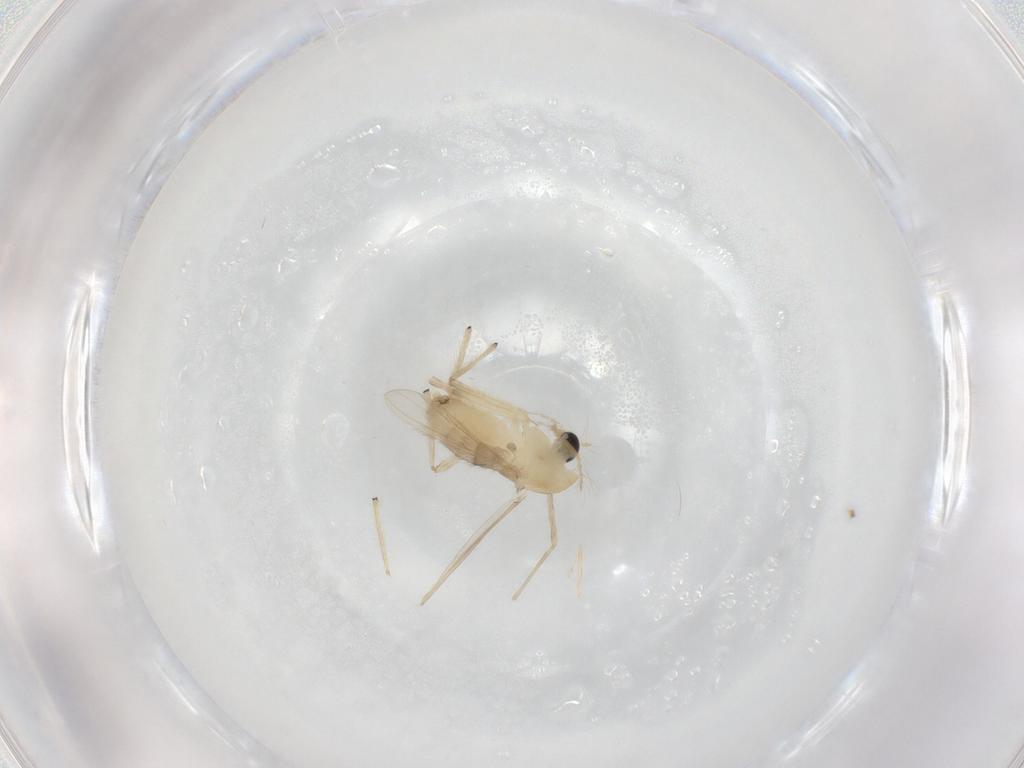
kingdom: Animalia
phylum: Arthropoda
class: Insecta
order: Diptera
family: Chironomidae
